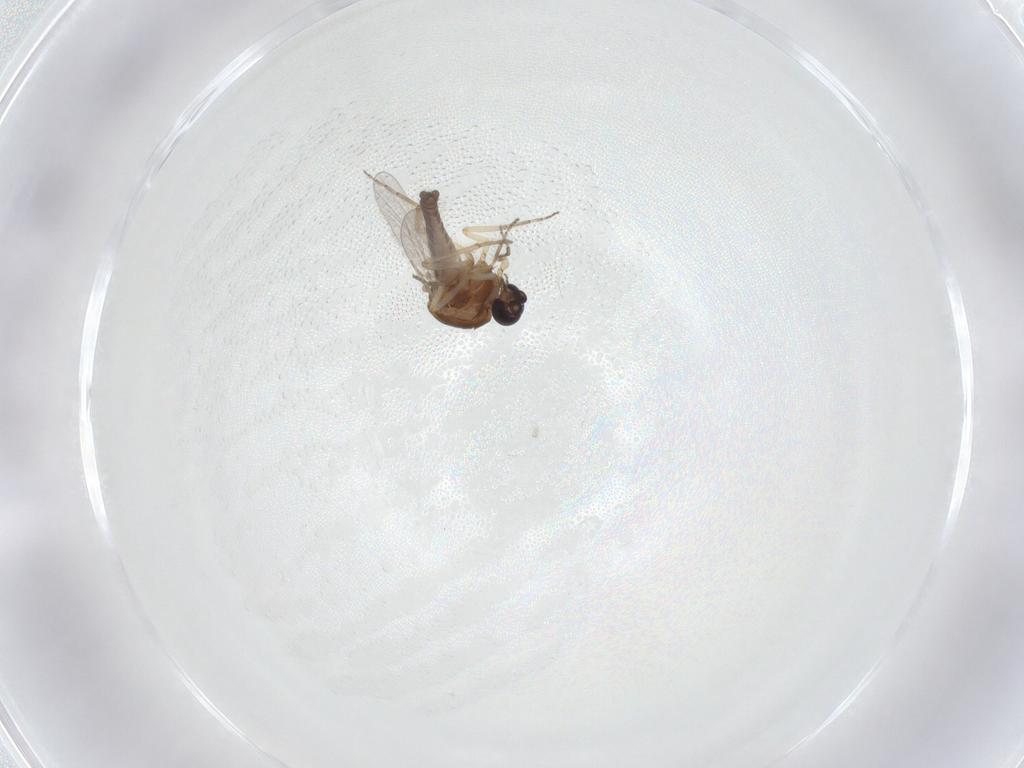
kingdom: Animalia
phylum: Arthropoda
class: Insecta
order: Diptera
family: Ceratopogonidae
